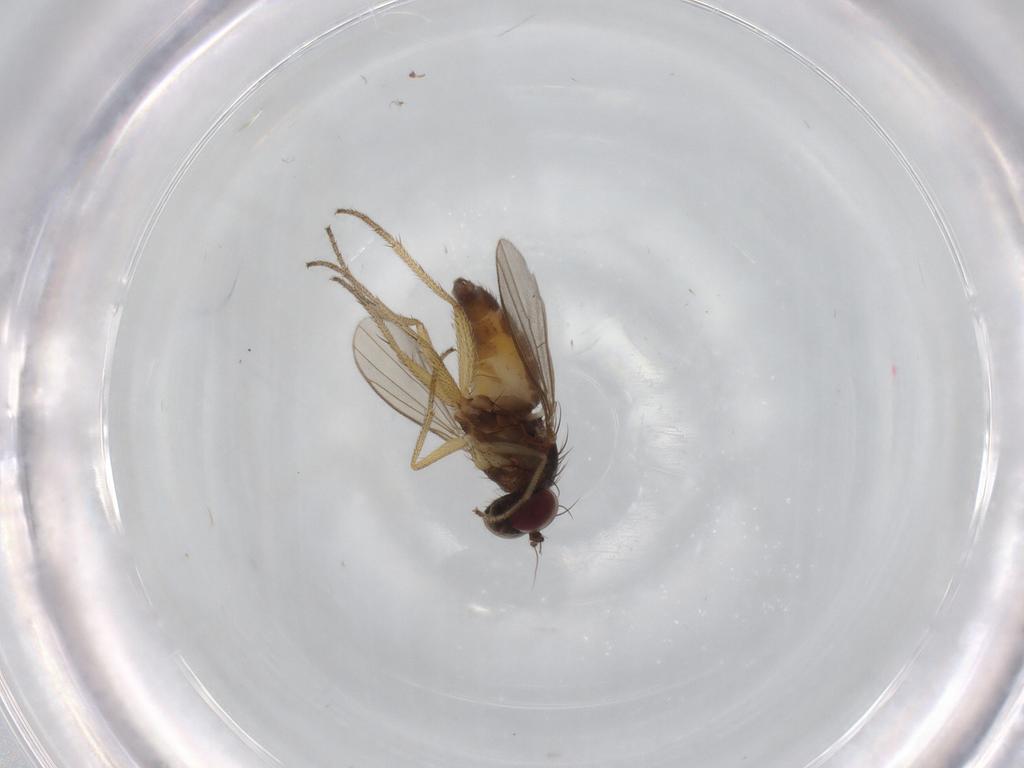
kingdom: Animalia
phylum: Arthropoda
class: Insecta
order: Diptera
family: Dolichopodidae
